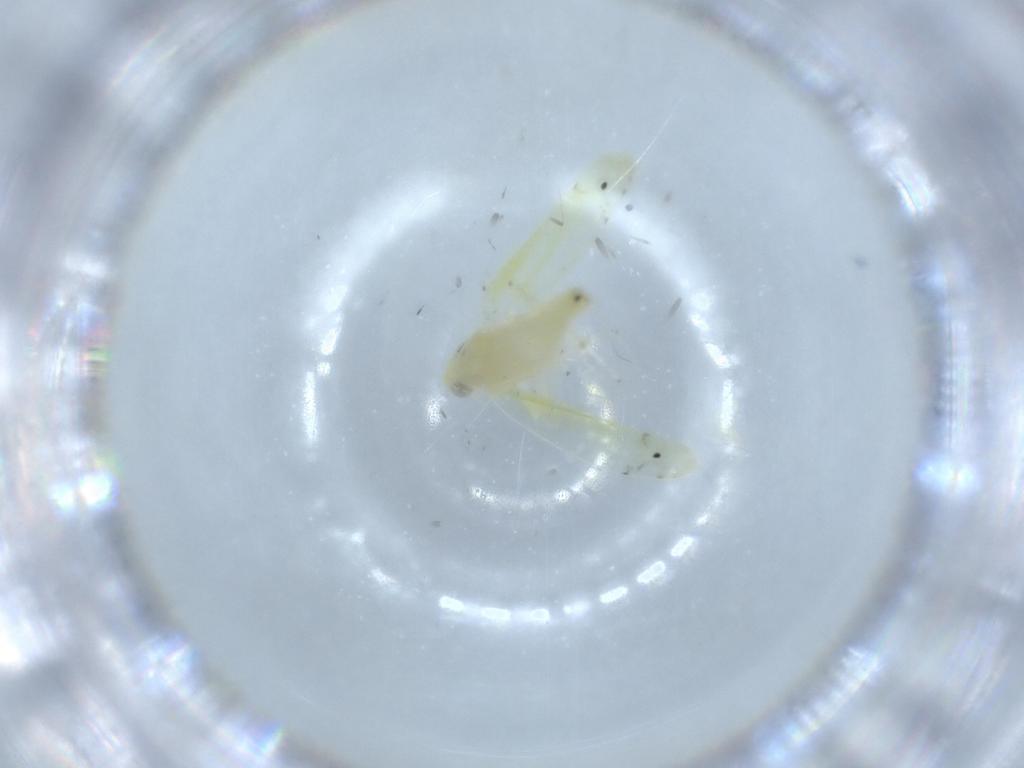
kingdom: Animalia
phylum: Arthropoda
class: Insecta
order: Hemiptera
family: Cicadellidae
